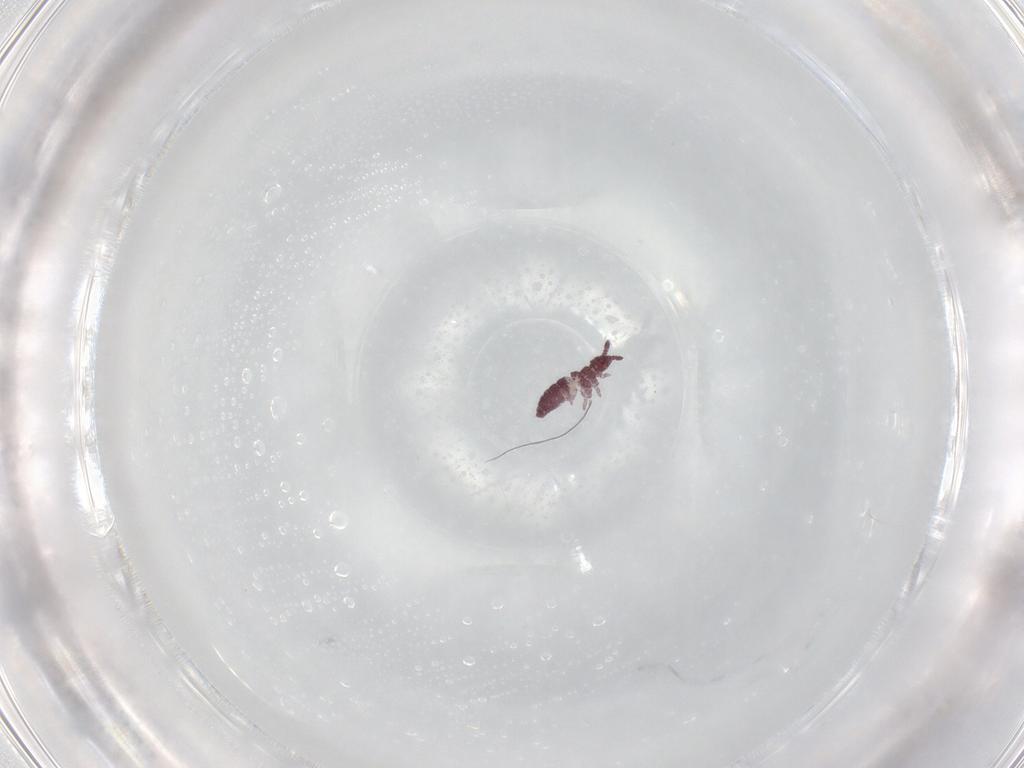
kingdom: Animalia
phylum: Arthropoda
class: Collembola
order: Poduromorpha
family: Hypogastruridae
